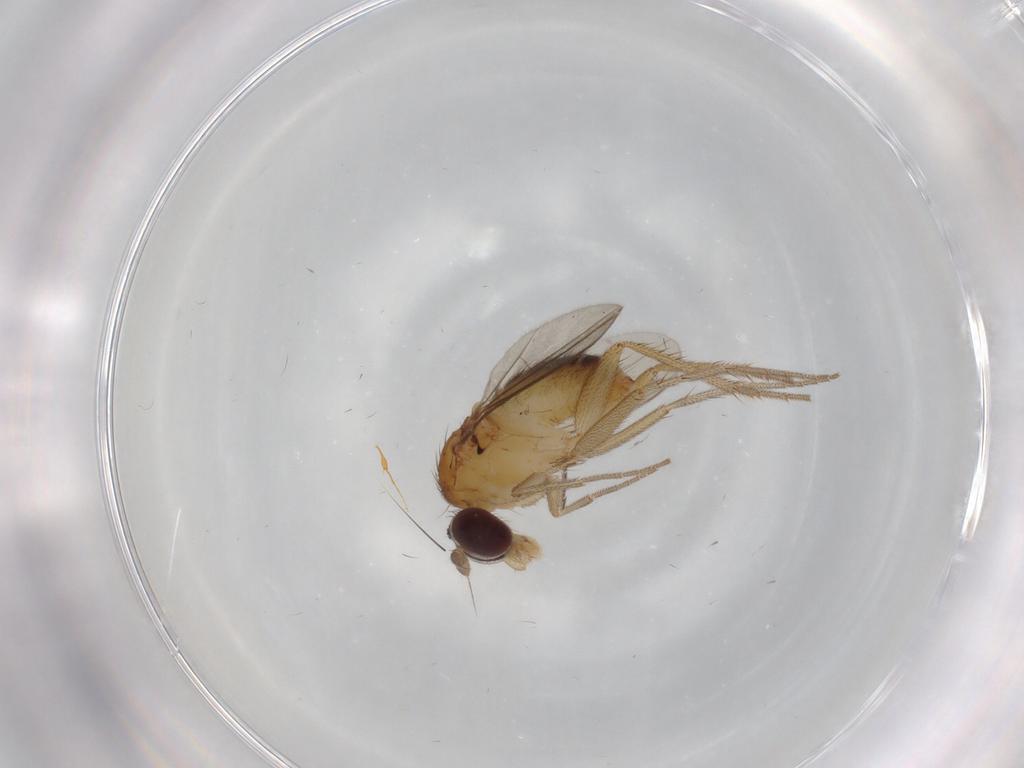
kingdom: Animalia
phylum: Arthropoda
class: Insecta
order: Diptera
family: Dolichopodidae
